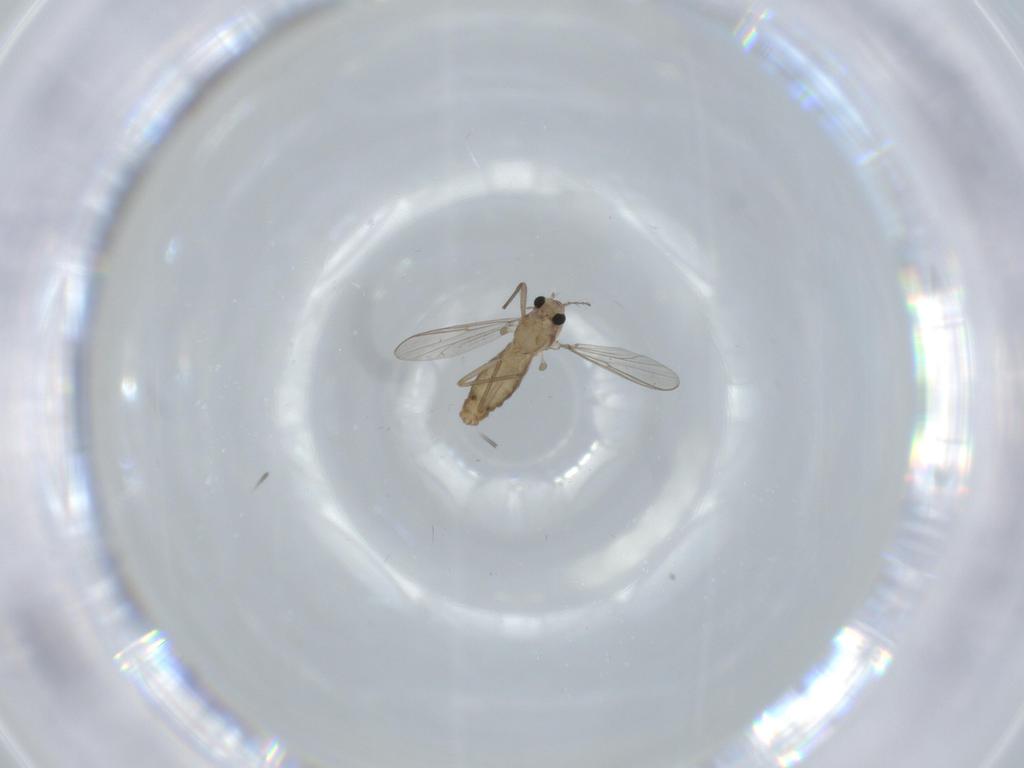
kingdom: Animalia
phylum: Arthropoda
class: Insecta
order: Diptera
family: Chironomidae
